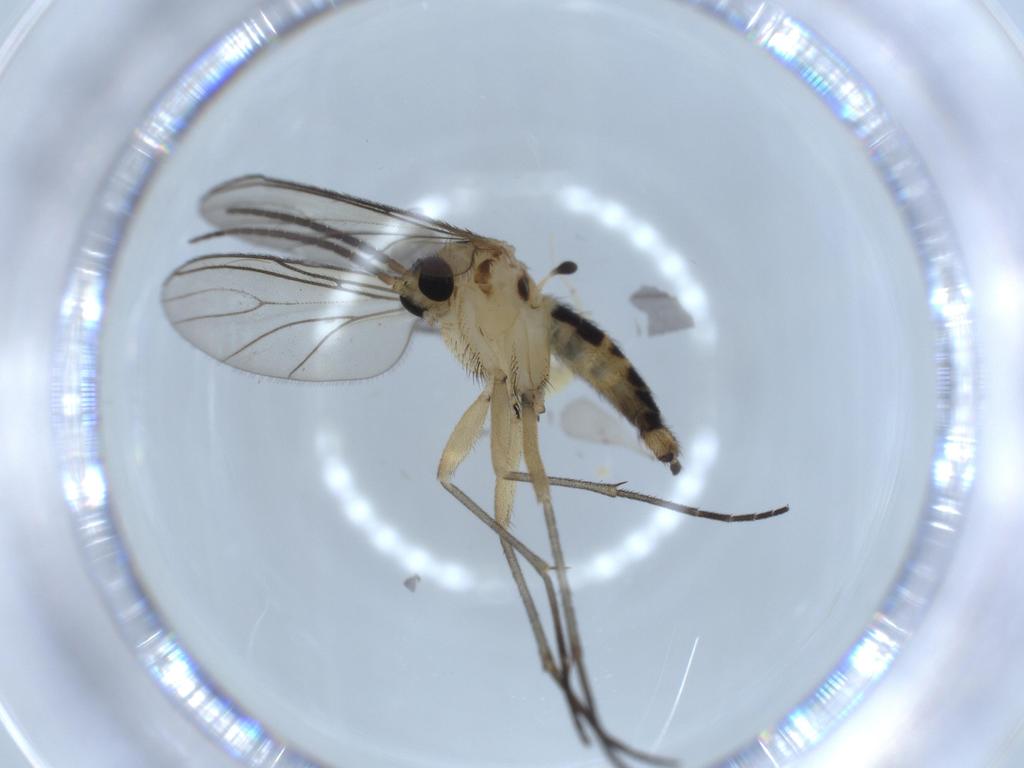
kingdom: Animalia
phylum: Arthropoda
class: Insecta
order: Diptera
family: Sciaridae
